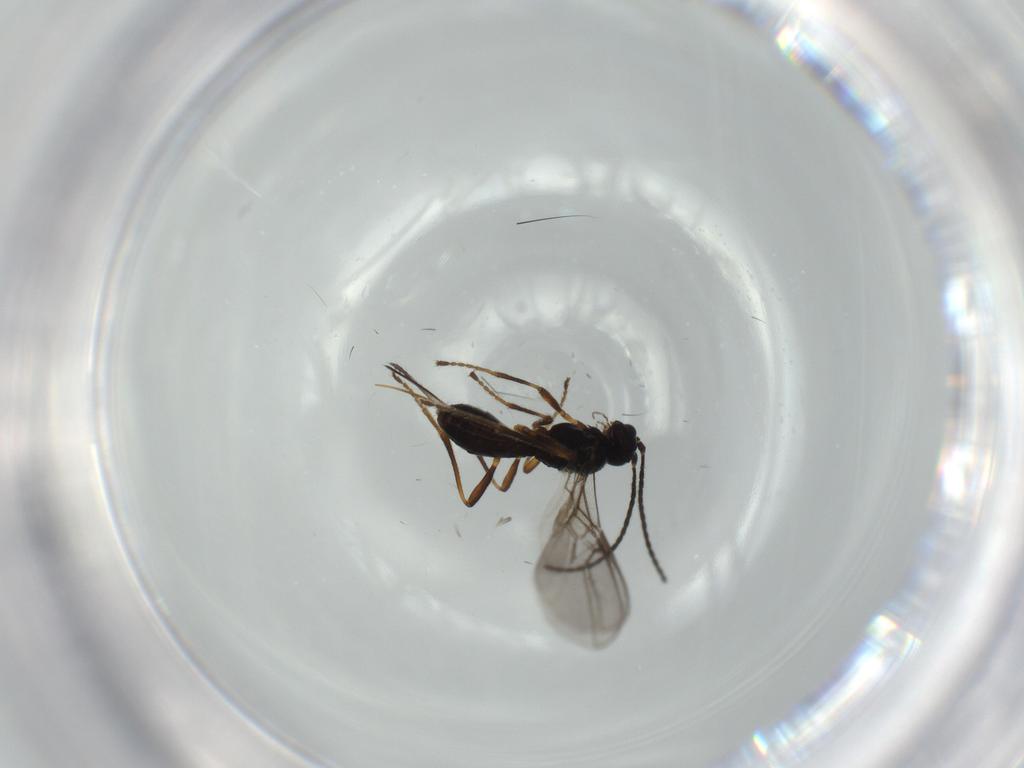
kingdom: Animalia
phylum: Arthropoda
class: Insecta
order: Hymenoptera
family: Braconidae
